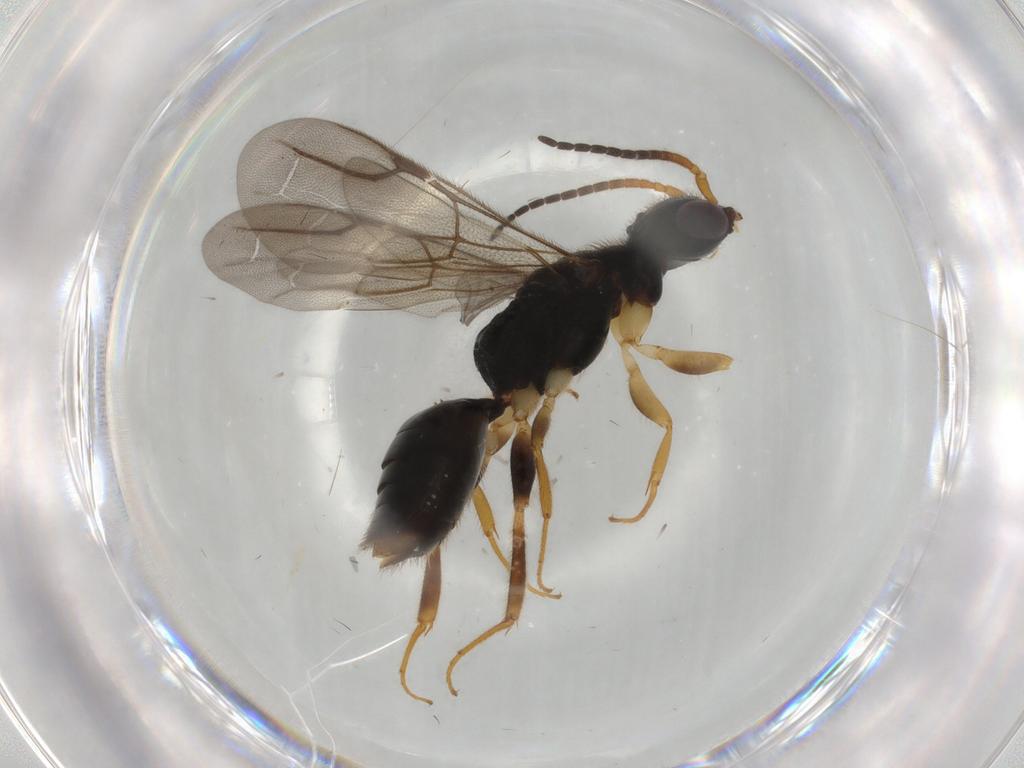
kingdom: Animalia
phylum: Arthropoda
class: Insecta
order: Hymenoptera
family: Bethylidae
